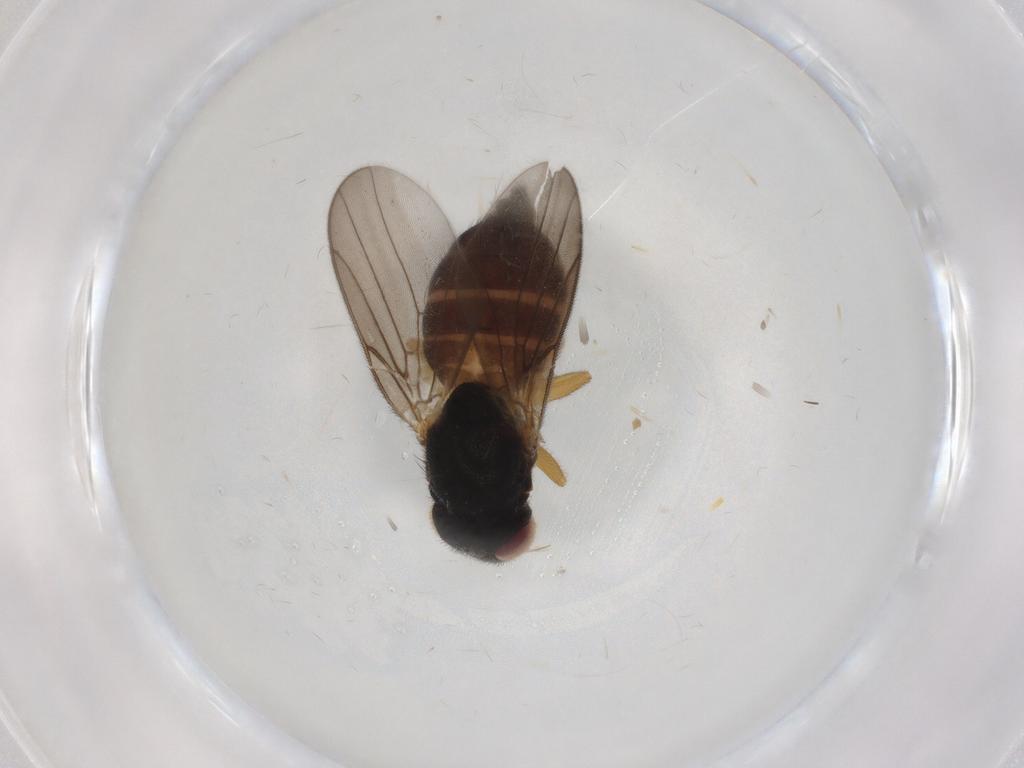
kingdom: Animalia
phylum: Arthropoda
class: Insecta
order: Diptera
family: Chloropidae
